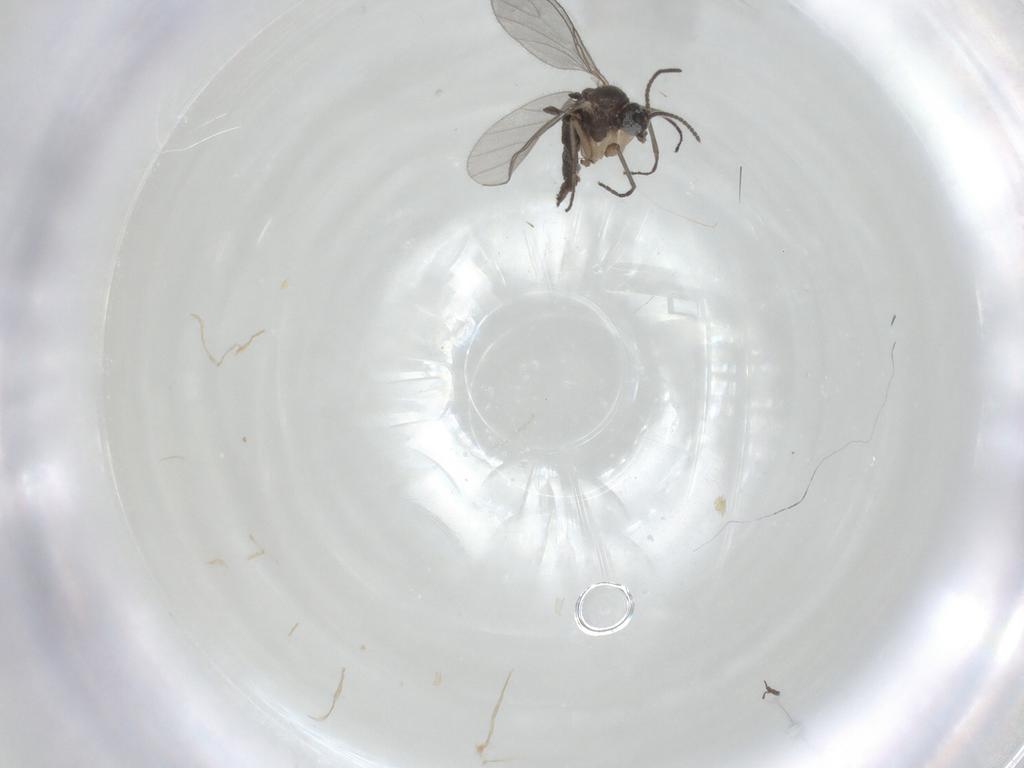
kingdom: Animalia
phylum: Arthropoda
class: Insecta
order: Diptera
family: Sciaridae
